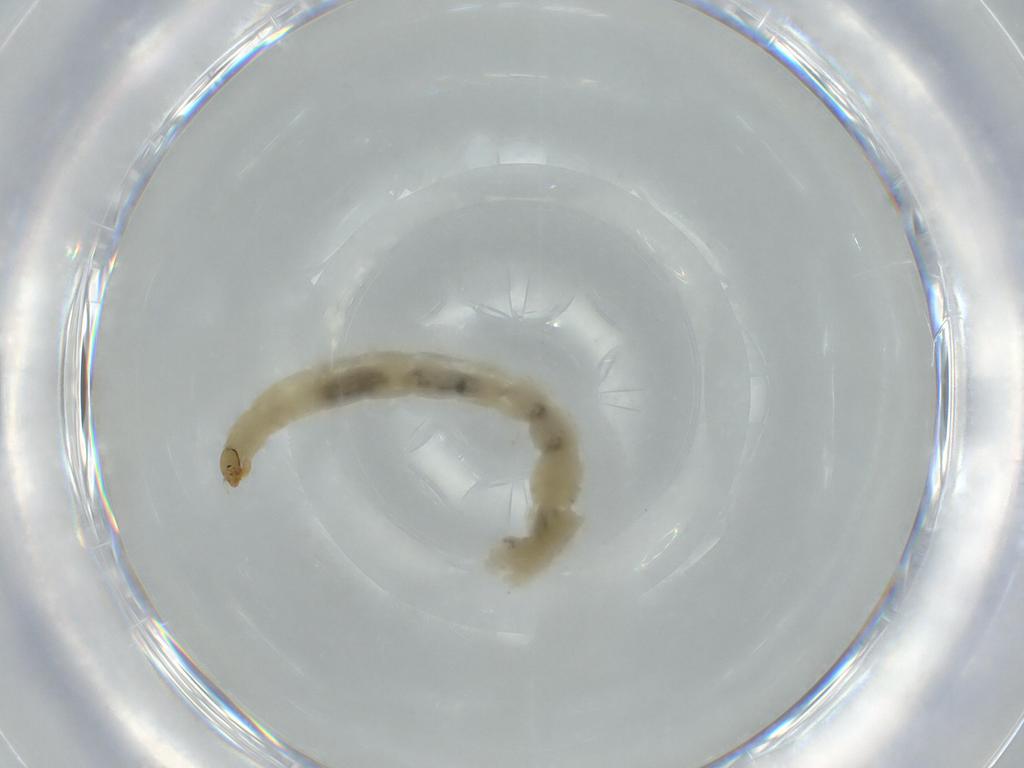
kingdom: Animalia
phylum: Arthropoda
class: Insecta
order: Diptera
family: Chironomidae
